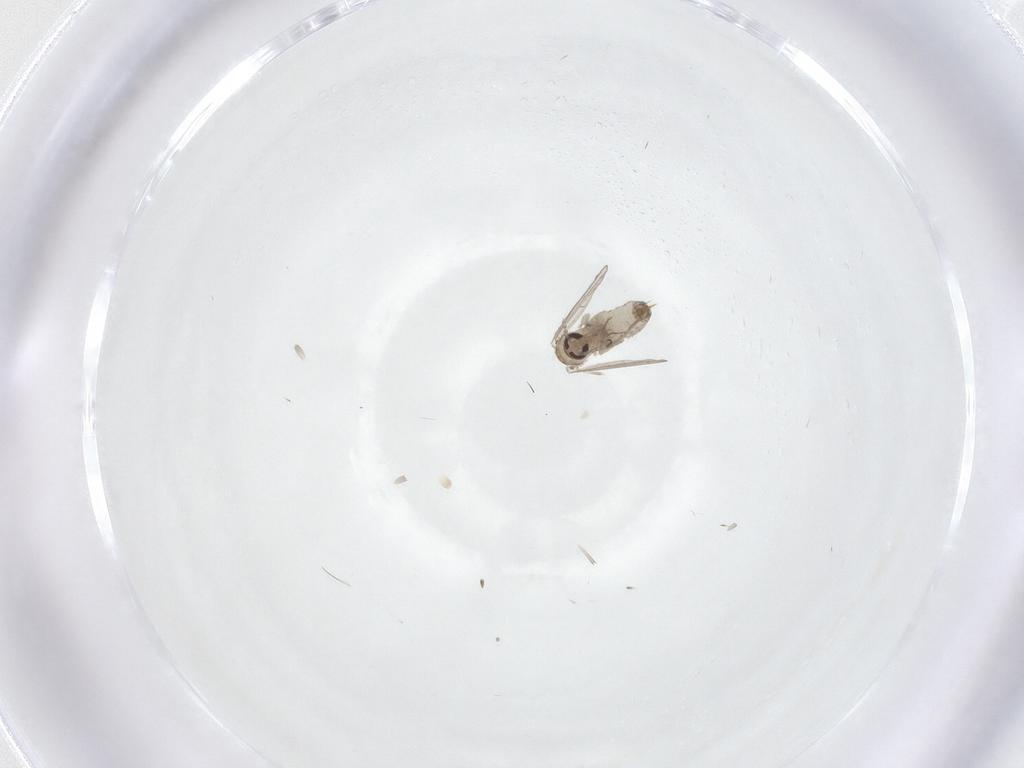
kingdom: Animalia
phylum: Arthropoda
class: Insecta
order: Diptera
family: Psychodidae
